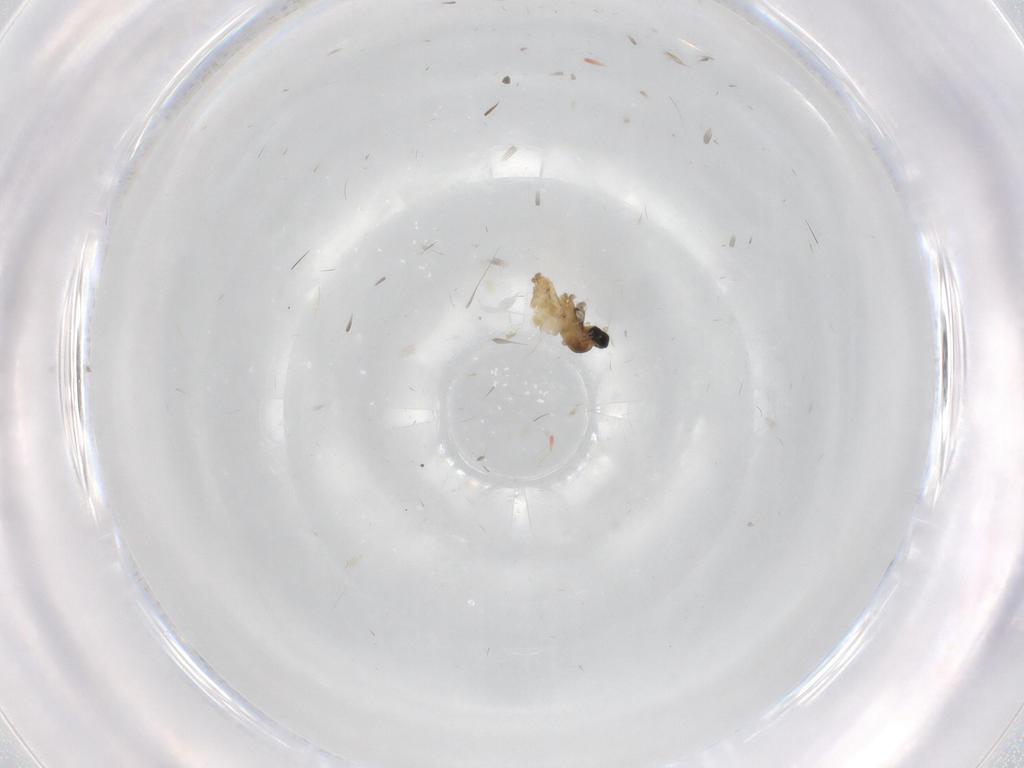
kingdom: Animalia
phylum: Arthropoda
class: Insecta
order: Diptera
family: Cecidomyiidae
